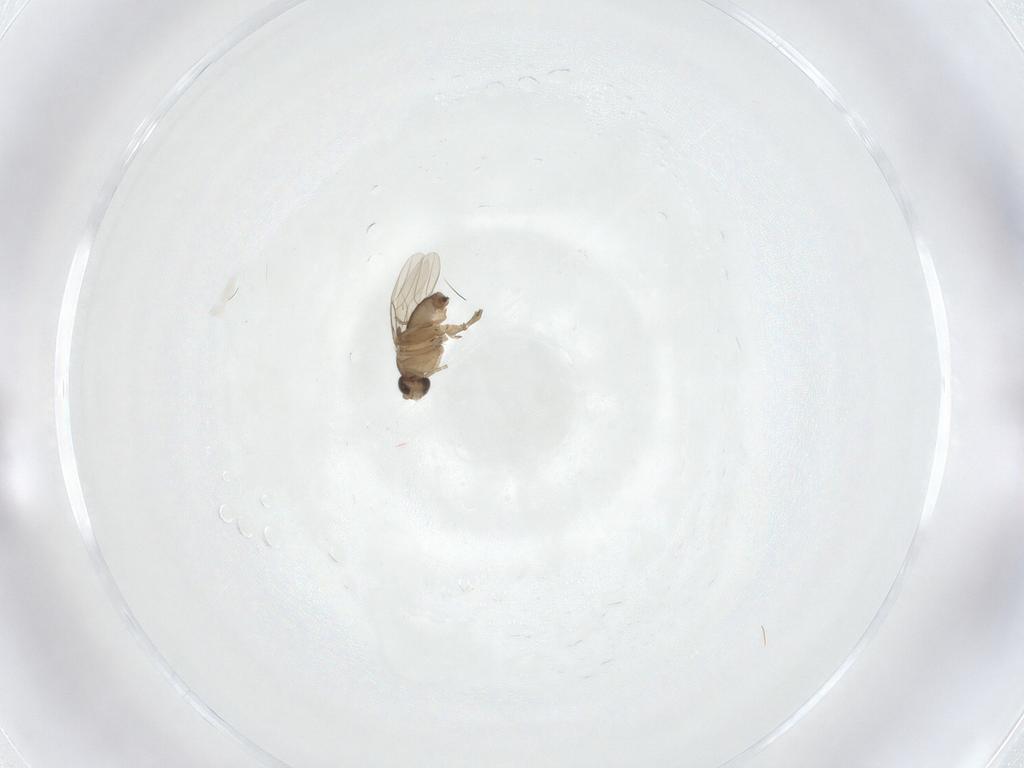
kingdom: Animalia
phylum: Arthropoda
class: Insecta
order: Diptera
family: Phoridae
